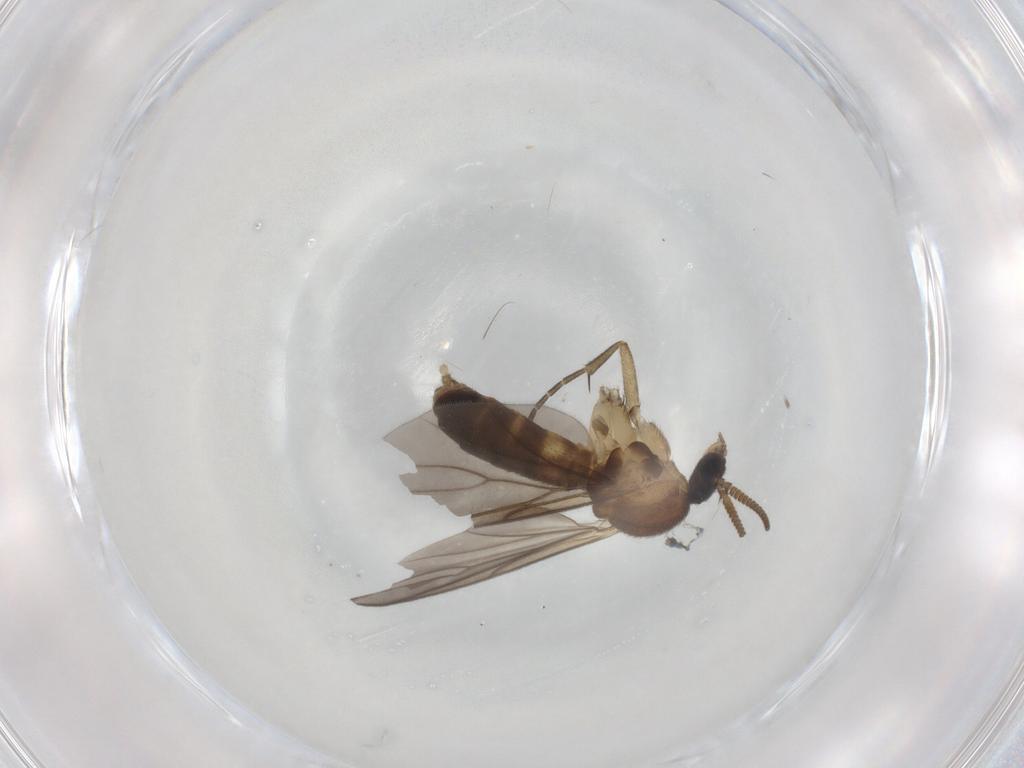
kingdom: Animalia
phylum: Arthropoda
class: Insecta
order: Diptera
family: Mycetophilidae
